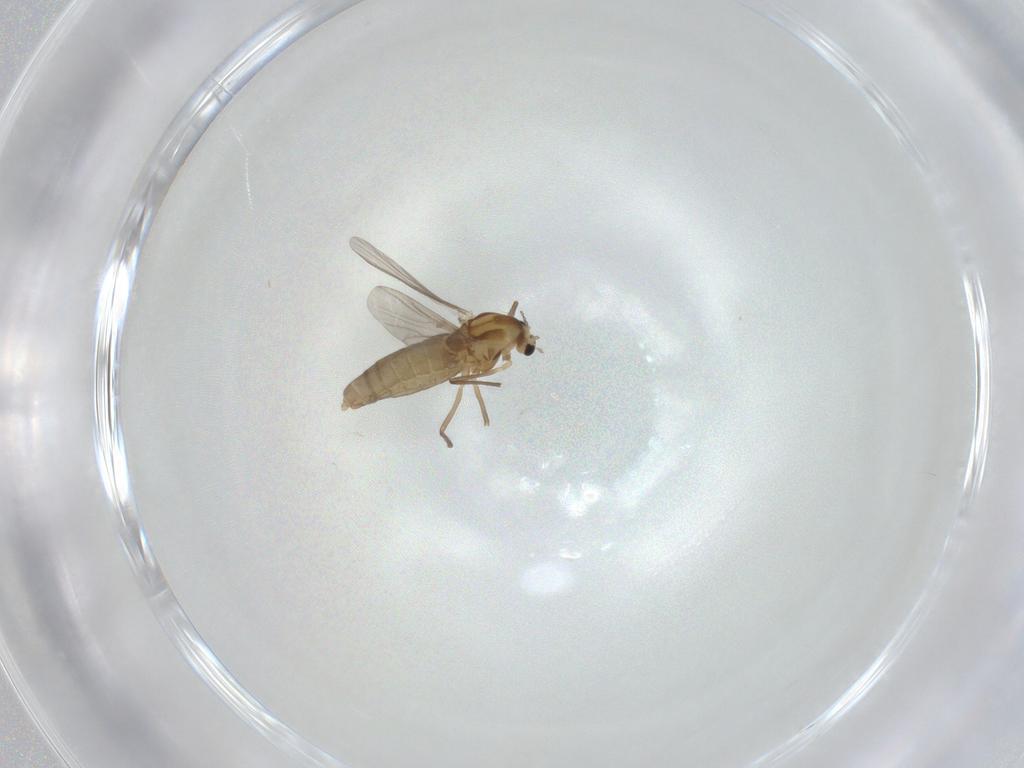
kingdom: Animalia
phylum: Arthropoda
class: Insecta
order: Diptera
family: Chironomidae
